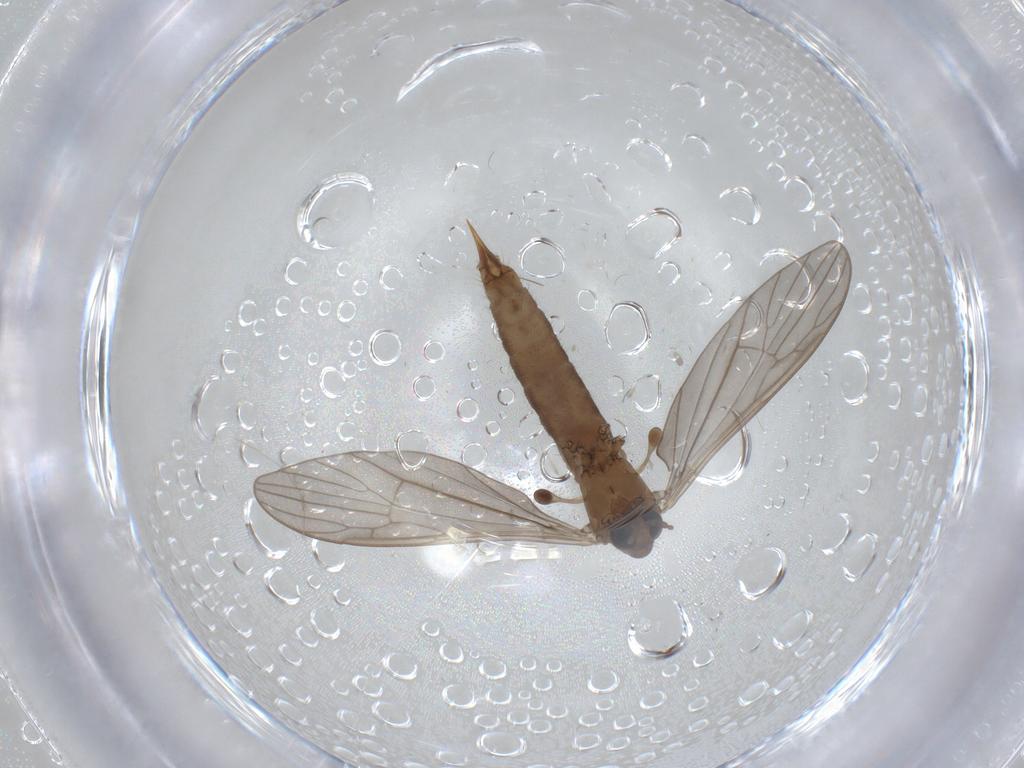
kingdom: Animalia
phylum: Arthropoda
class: Insecta
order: Diptera
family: Limoniidae
